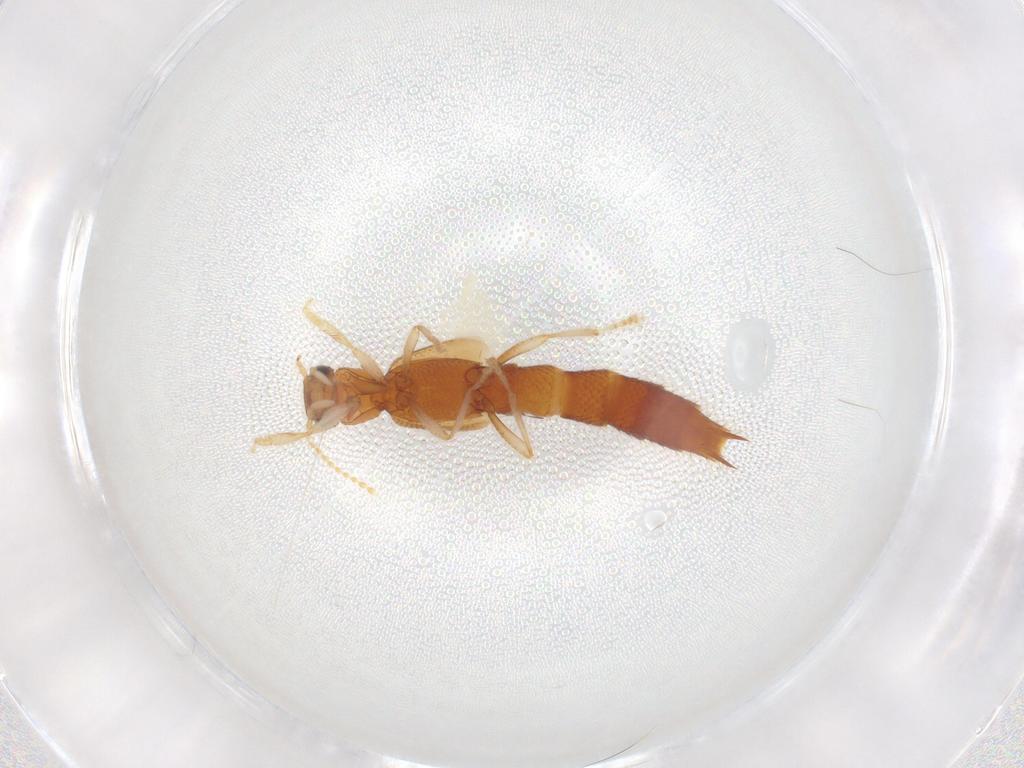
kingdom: Animalia
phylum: Arthropoda
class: Insecta
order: Coleoptera
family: Staphylinidae
